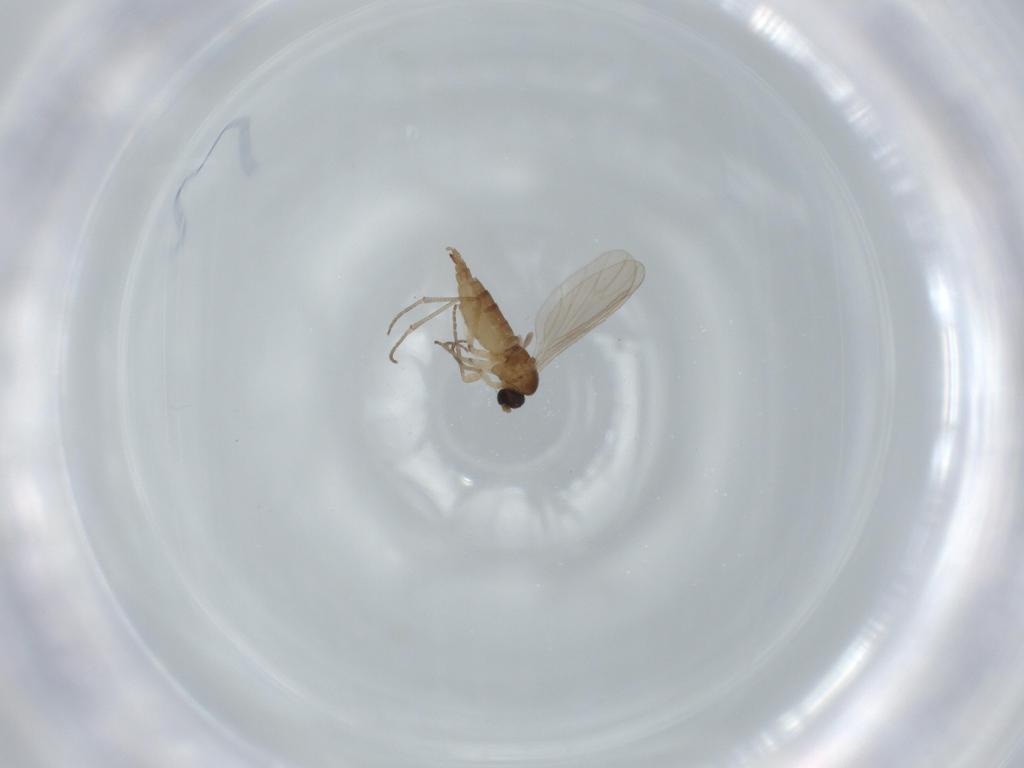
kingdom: Animalia
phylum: Arthropoda
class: Insecta
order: Diptera
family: Sciaridae
